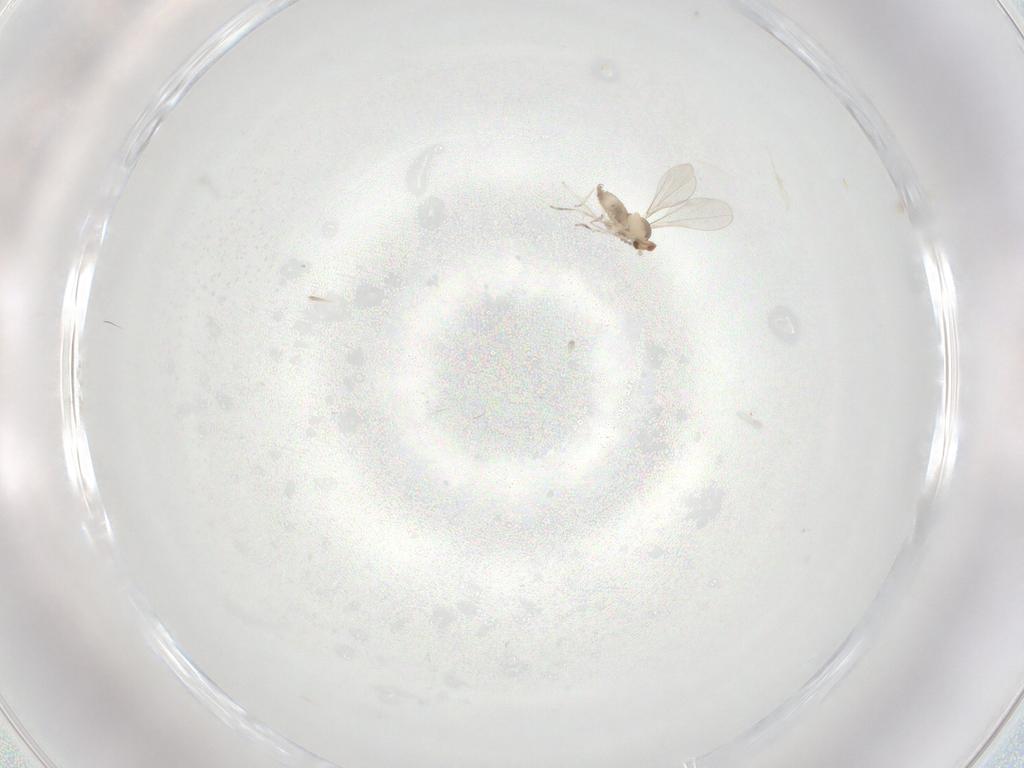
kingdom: Animalia
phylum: Arthropoda
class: Insecta
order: Diptera
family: Cecidomyiidae
